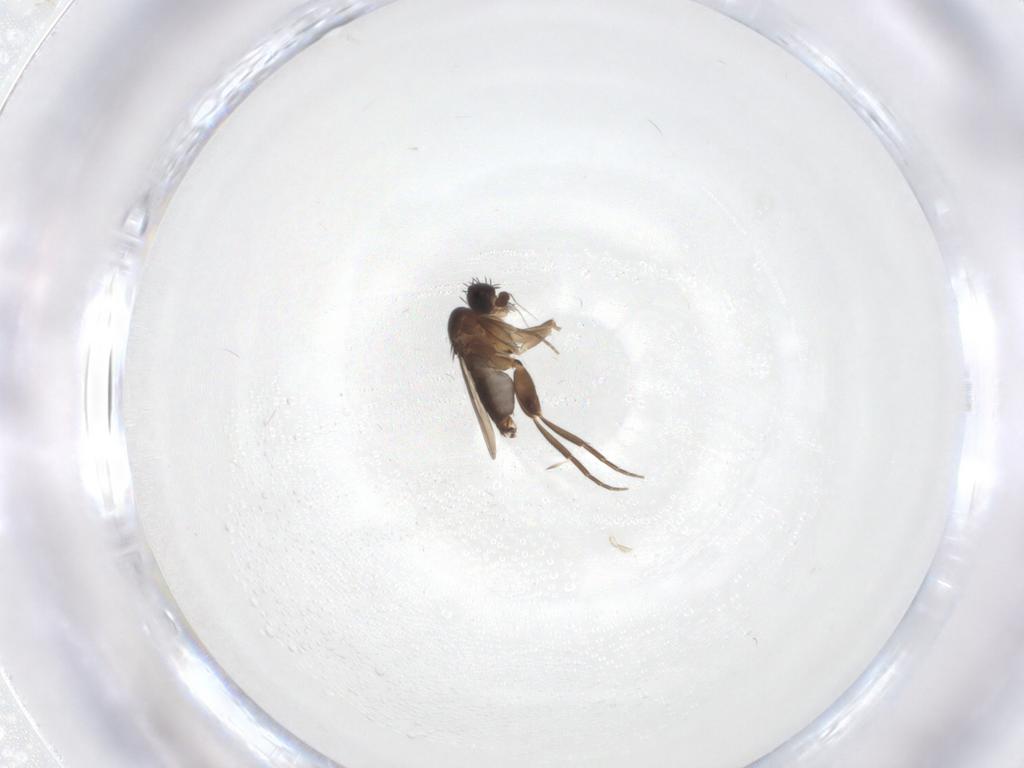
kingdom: Animalia
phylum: Arthropoda
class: Insecta
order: Diptera
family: Phoridae
